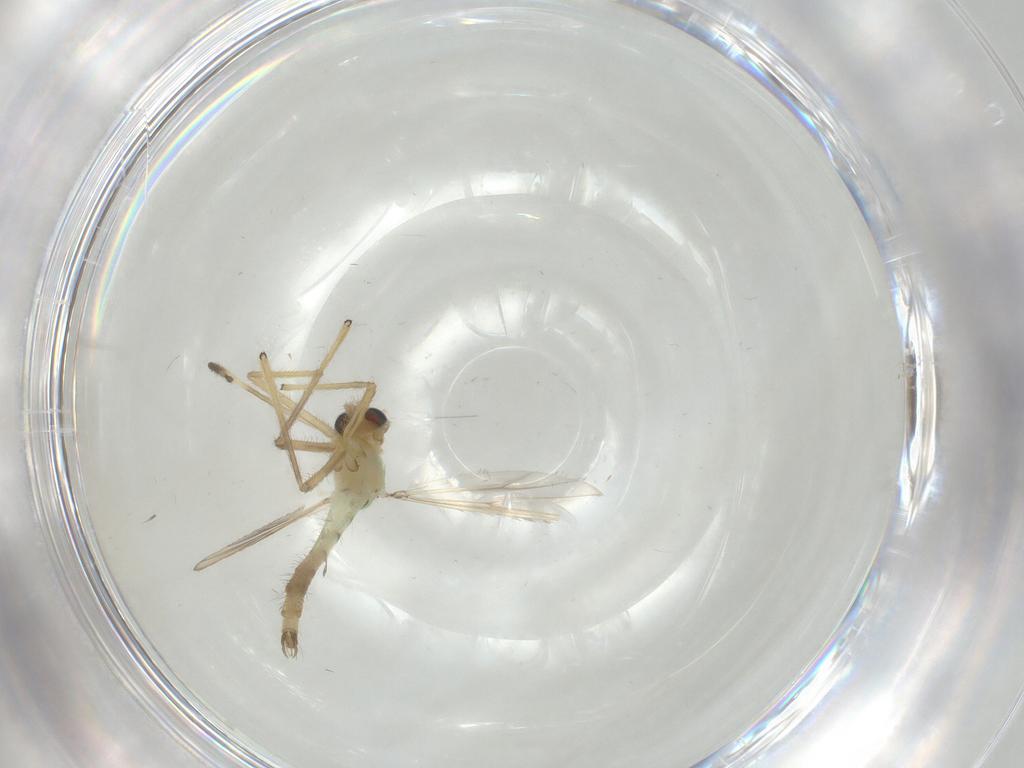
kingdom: Animalia
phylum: Arthropoda
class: Insecta
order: Diptera
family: Chironomidae
